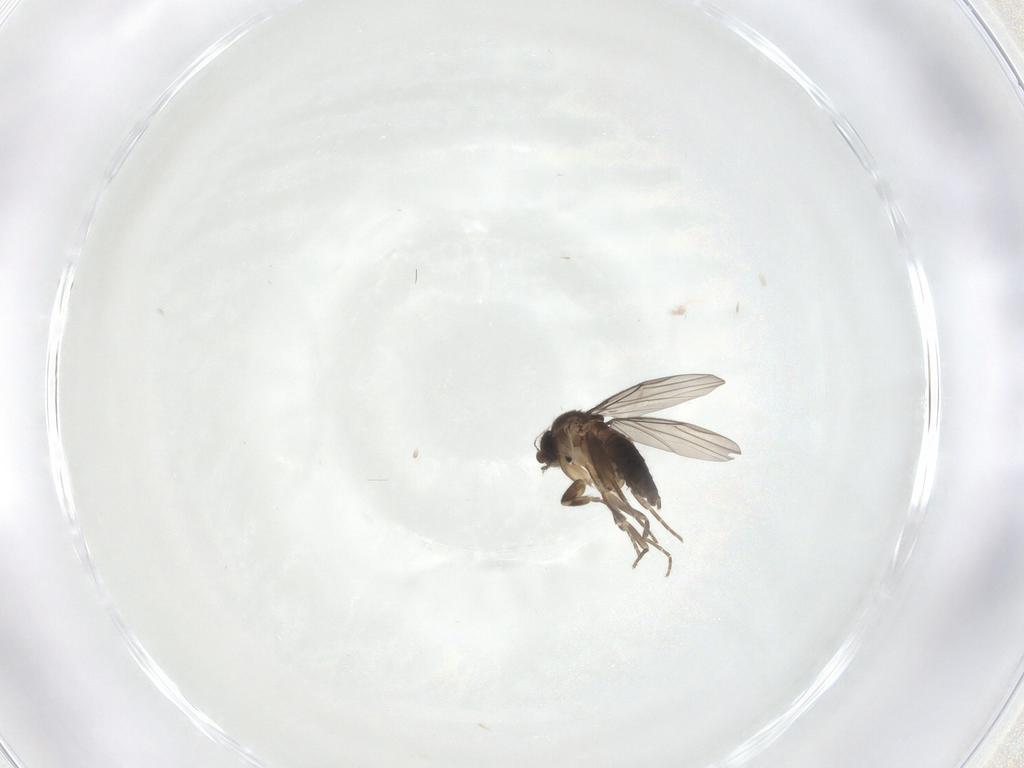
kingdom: Animalia
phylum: Arthropoda
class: Insecta
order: Diptera
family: Phoridae
